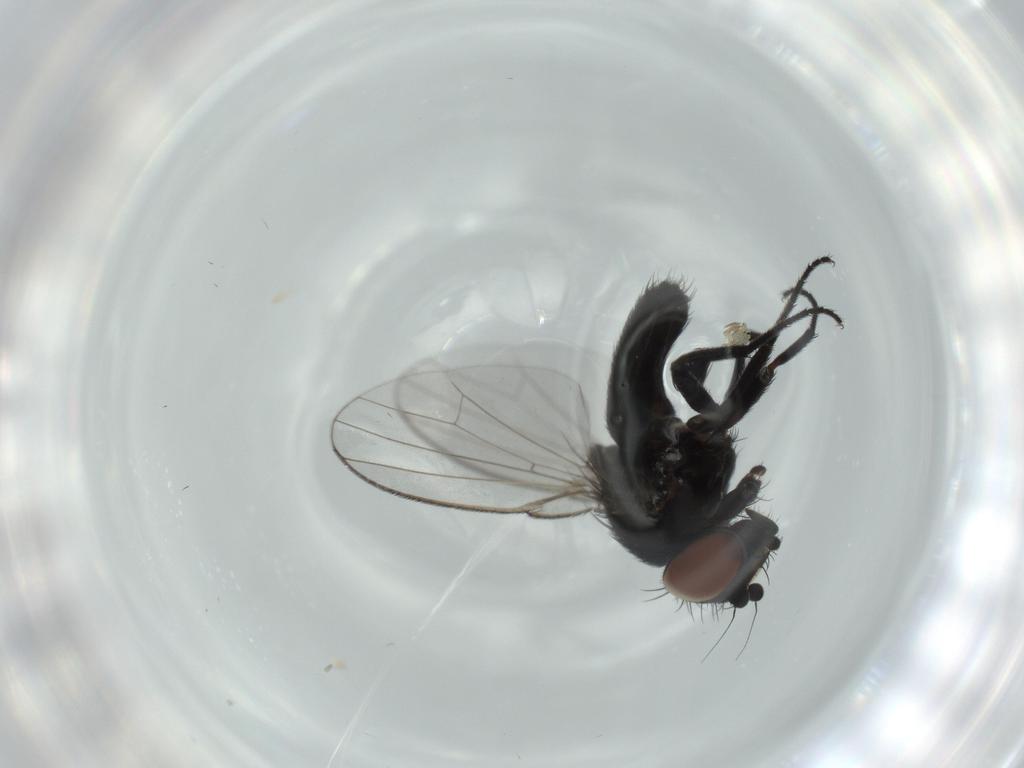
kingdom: Animalia
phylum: Arthropoda
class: Insecta
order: Diptera
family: Milichiidae
